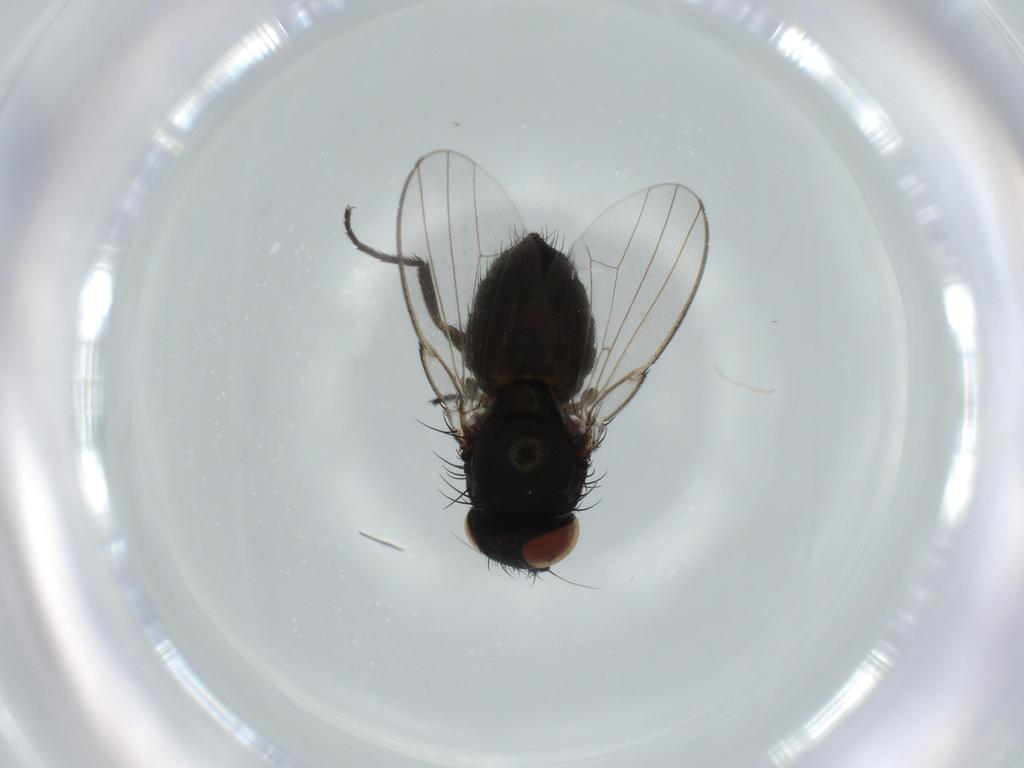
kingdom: Animalia
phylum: Arthropoda
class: Insecta
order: Diptera
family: Milichiidae
